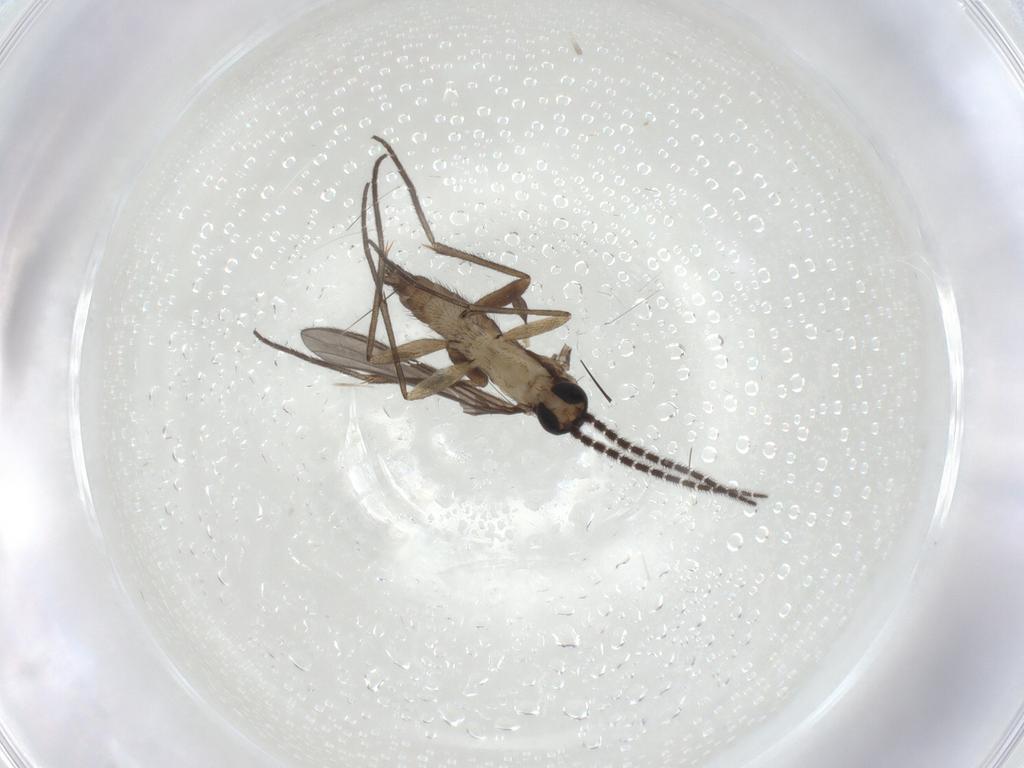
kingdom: Animalia
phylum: Arthropoda
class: Insecta
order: Diptera
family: Sciaridae
